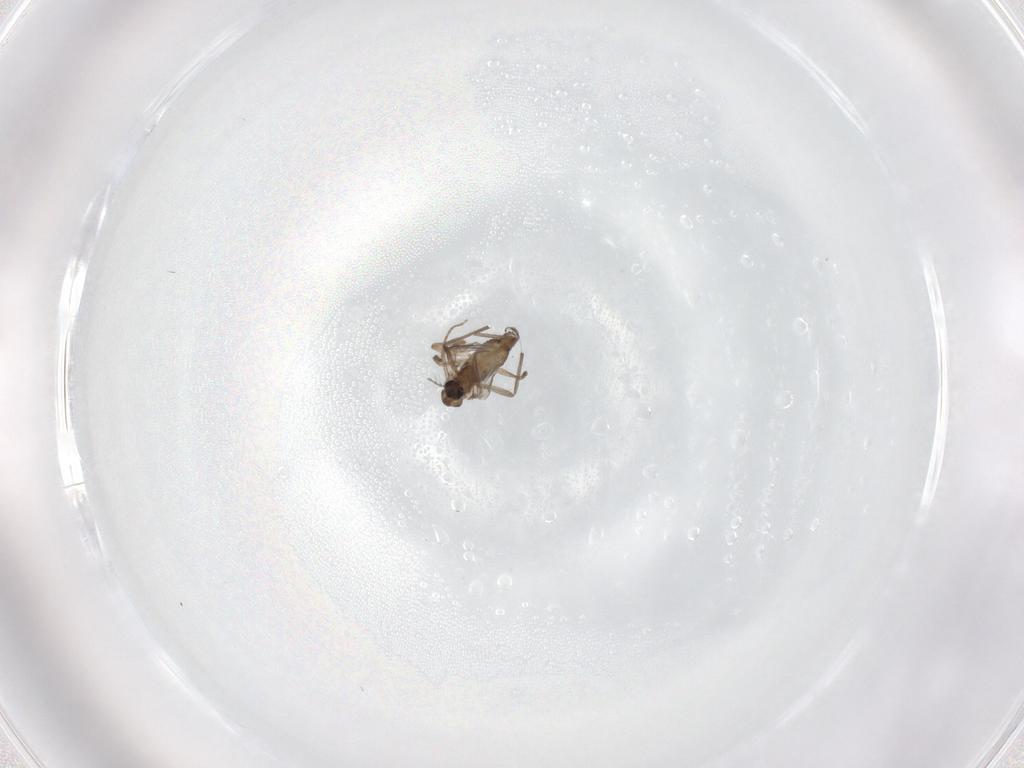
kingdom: Animalia
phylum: Arthropoda
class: Insecta
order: Diptera
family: Chironomidae
